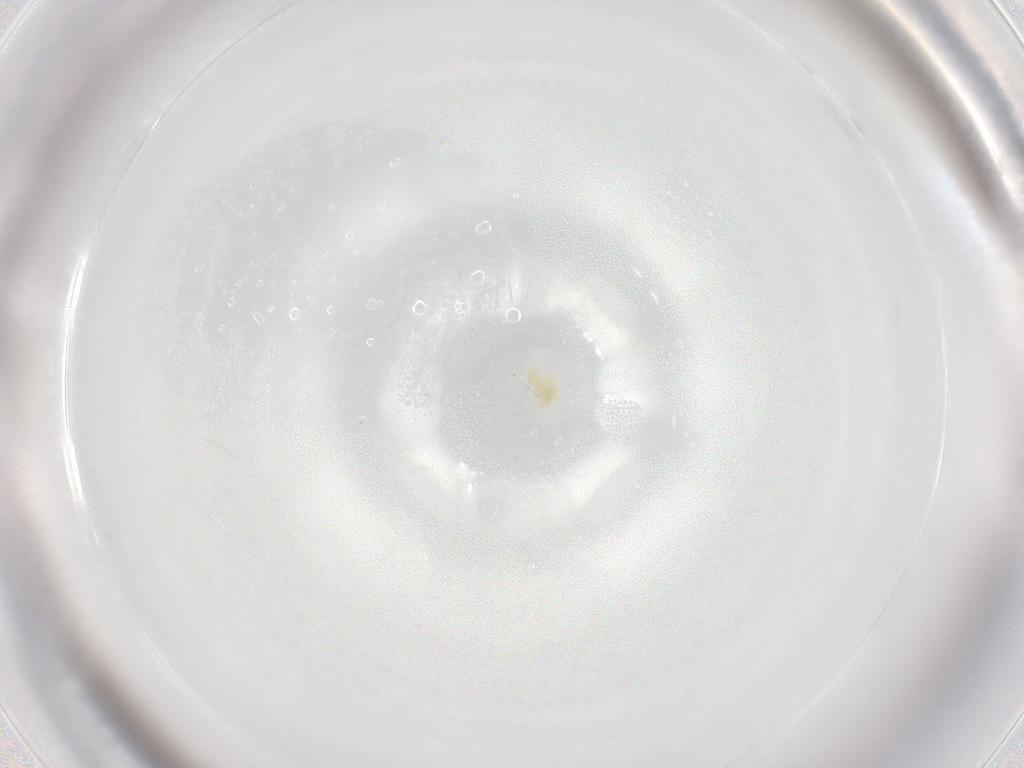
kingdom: Animalia
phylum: Arthropoda
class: Arachnida
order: Trombidiformes
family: Eupodidae
